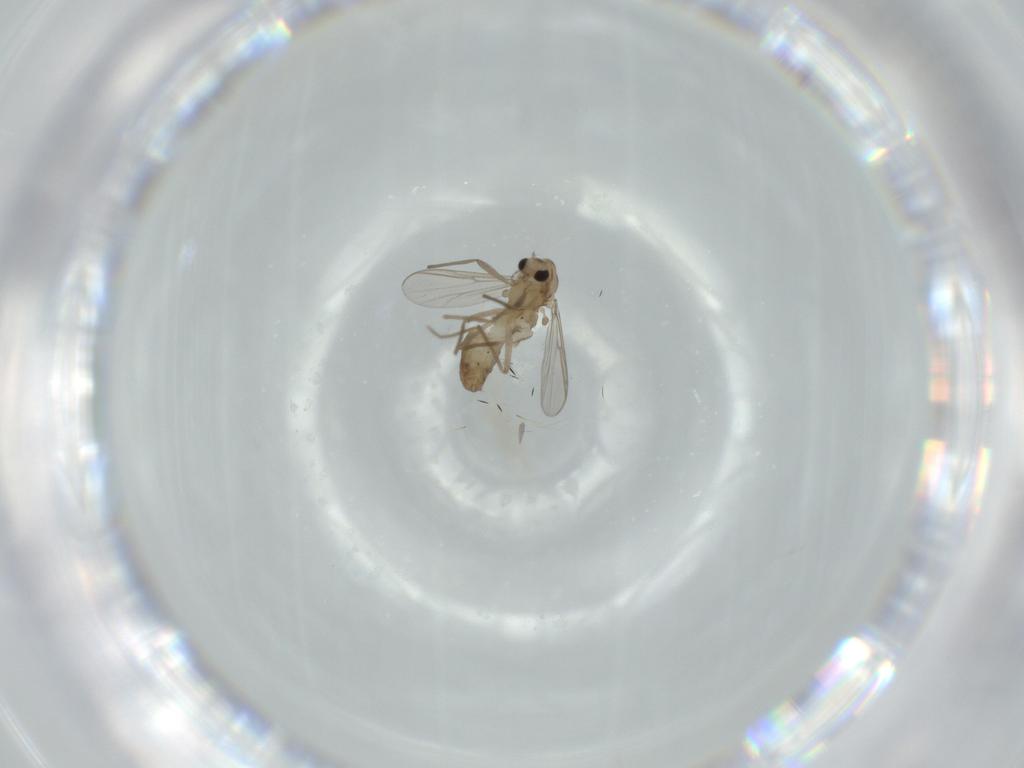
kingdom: Animalia
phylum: Arthropoda
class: Insecta
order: Diptera
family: Chironomidae
